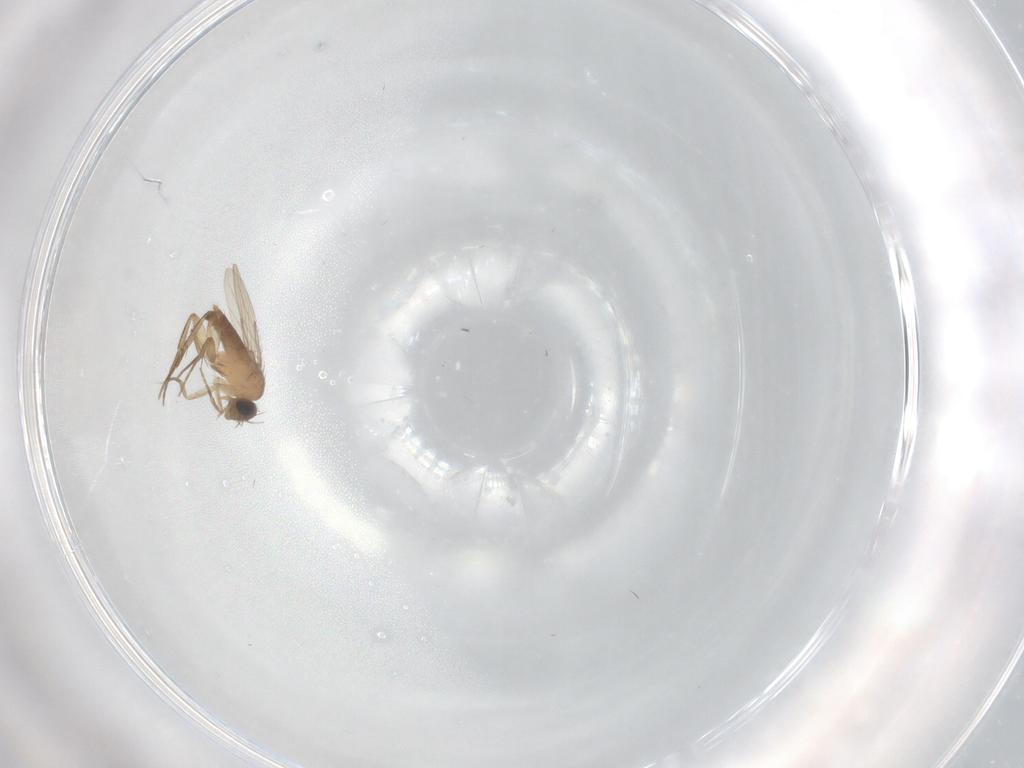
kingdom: Animalia
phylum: Arthropoda
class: Insecta
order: Diptera
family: Phoridae
